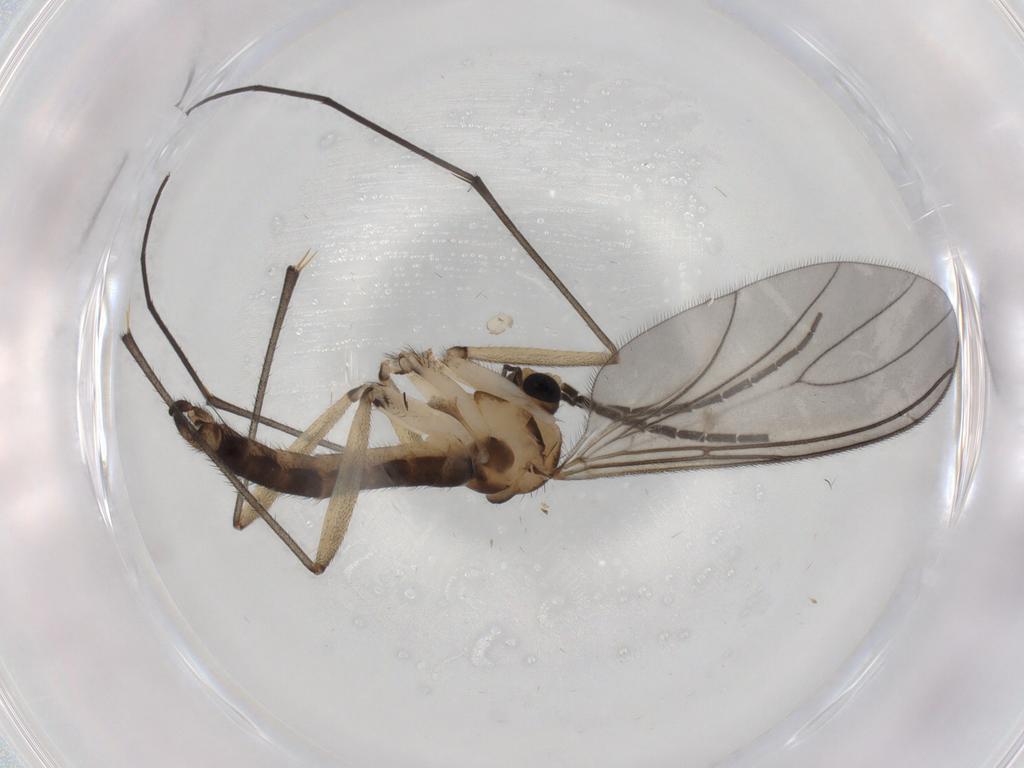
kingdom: Animalia
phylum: Arthropoda
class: Insecta
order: Diptera
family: Sciaridae
